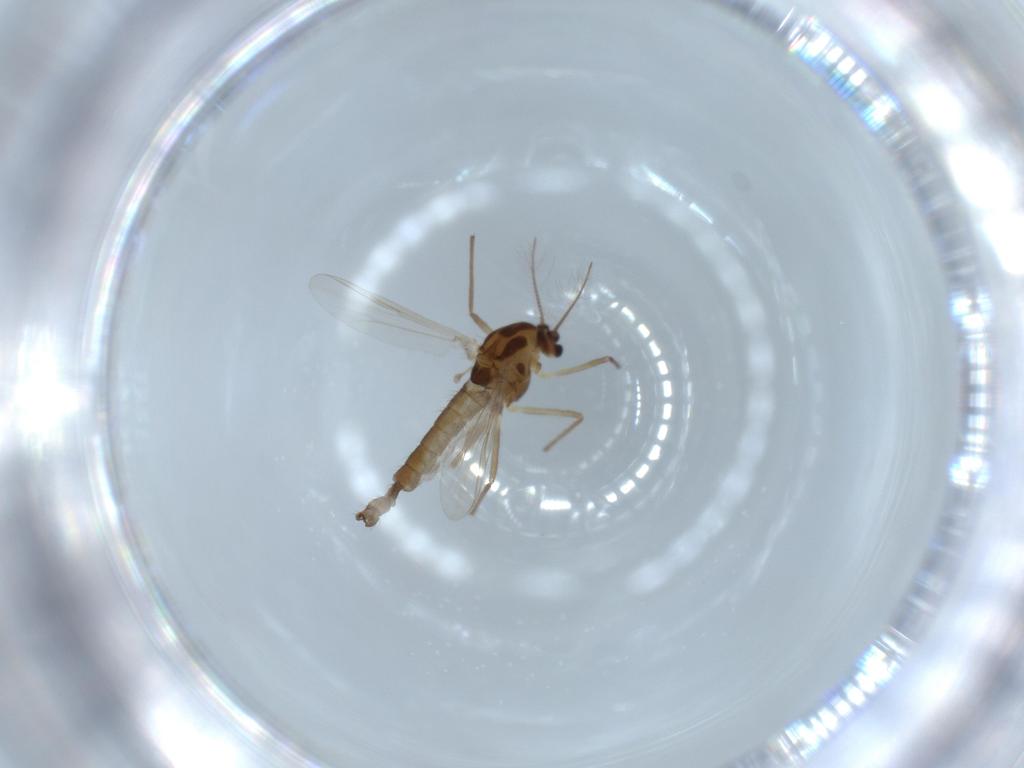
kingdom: Animalia
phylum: Arthropoda
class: Insecta
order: Diptera
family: Chironomidae
